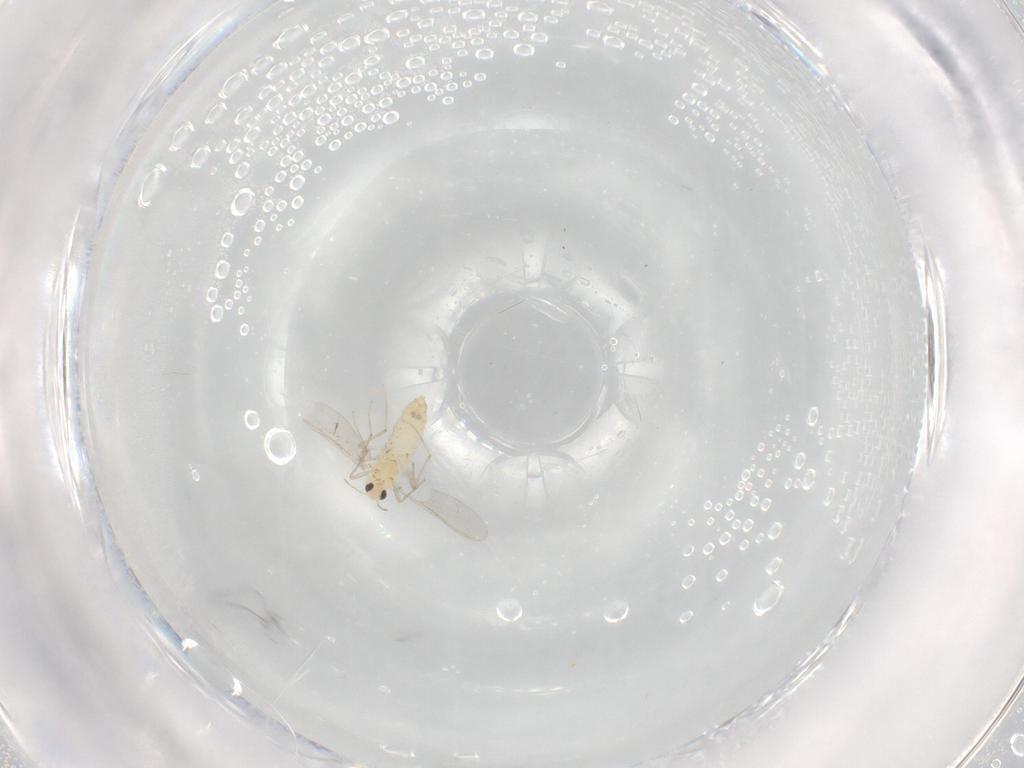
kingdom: Animalia
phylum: Arthropoda
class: Insecta
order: Diptera
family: Chironomidae
